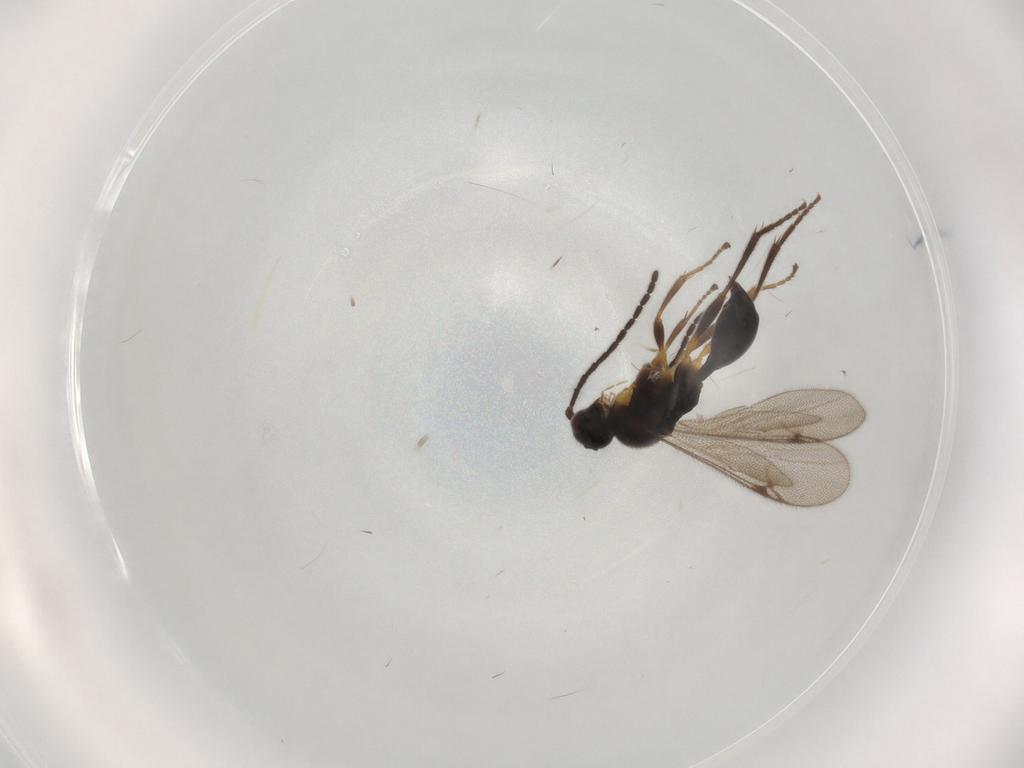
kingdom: Animalia
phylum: Arthropoda
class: Insecta
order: Hymenoptera
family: Proctotrupidae
